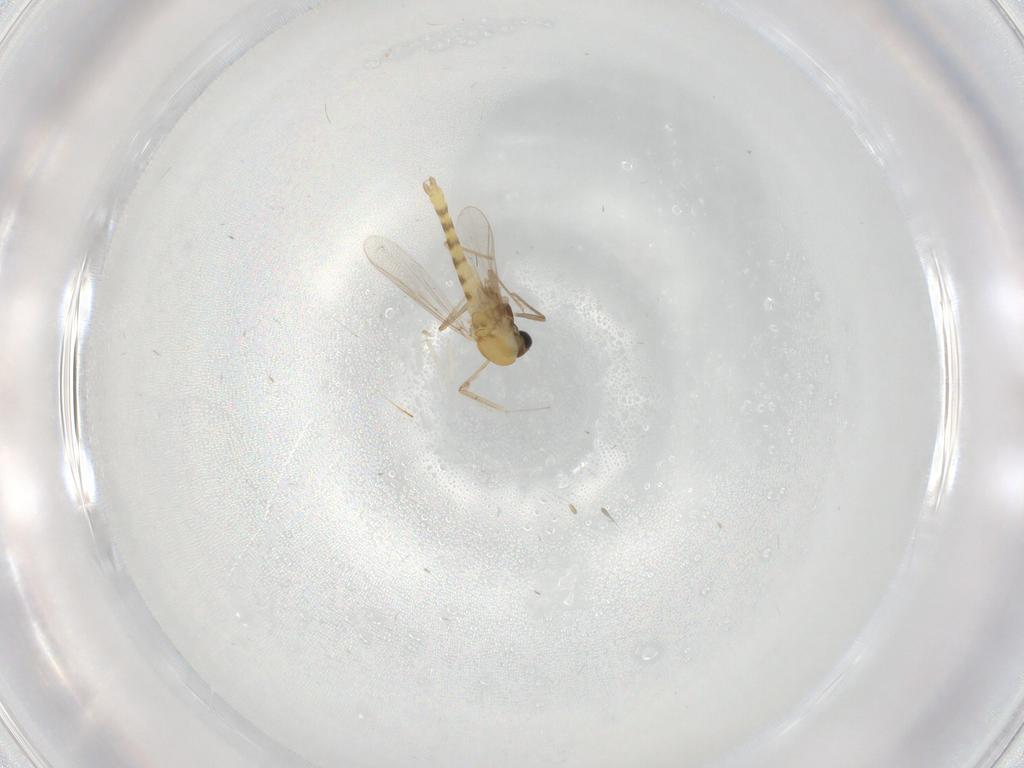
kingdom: Animalia
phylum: Arthropoda
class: Insecta
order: Diptera
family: Chironomidae
